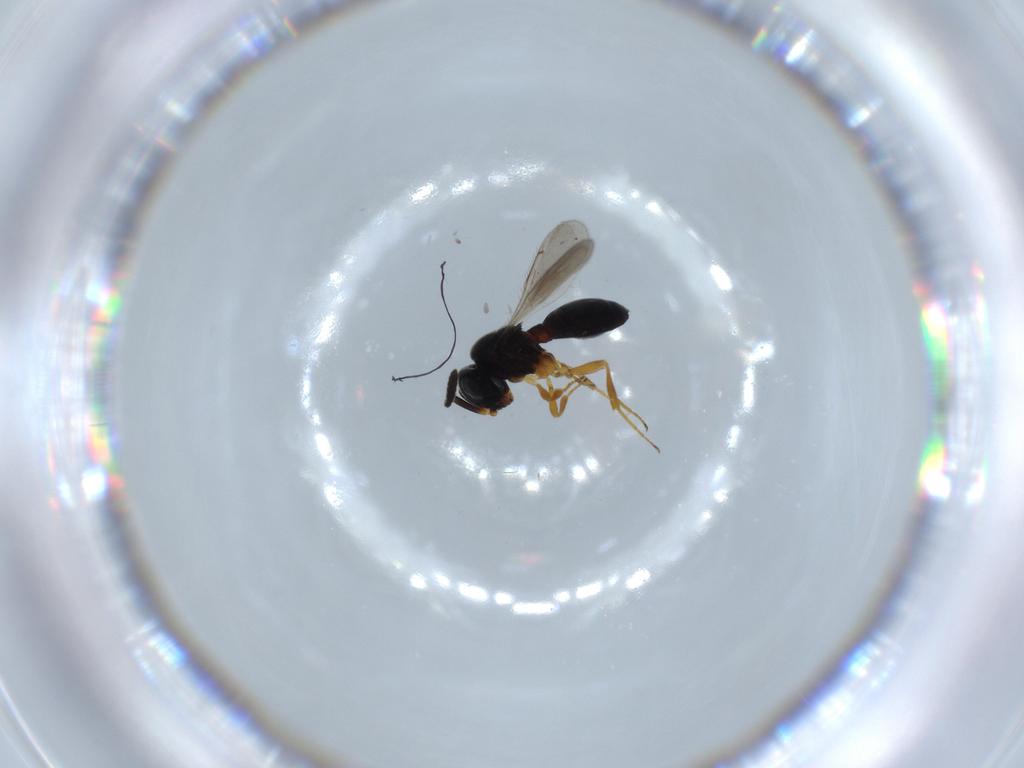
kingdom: Animalia
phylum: Arthropoda
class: Insecta
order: Hymenoptera
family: Scelionidae
